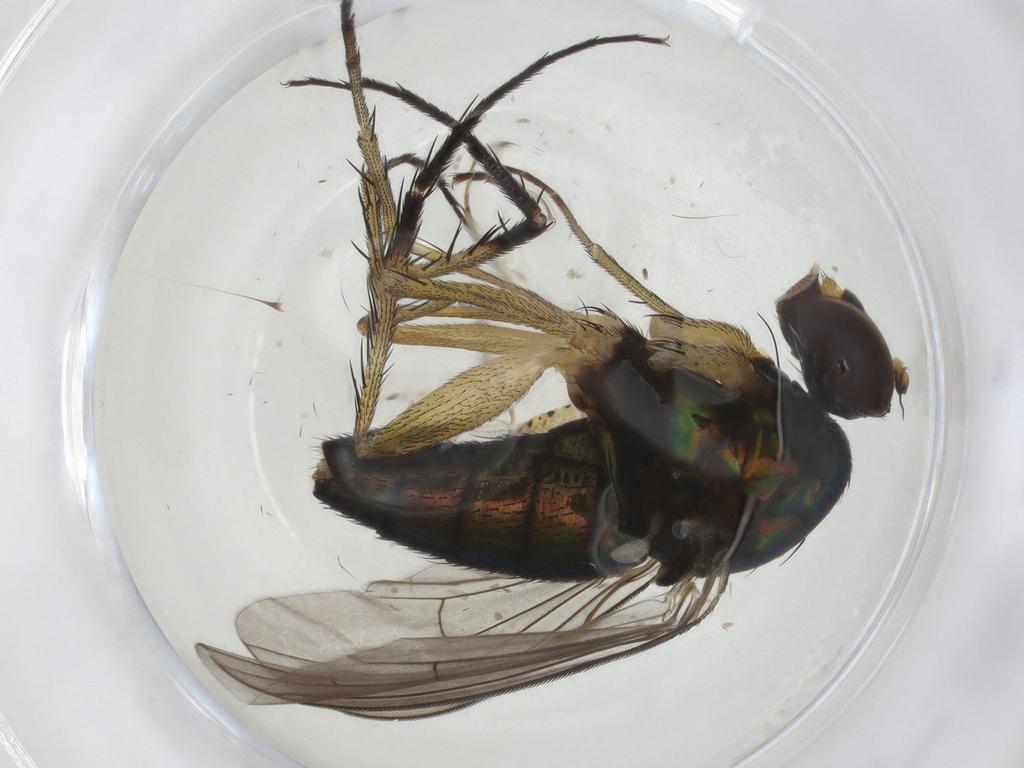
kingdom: Animalia
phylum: Arthropoda
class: Insecta
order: Diptera
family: Dolichopodidae
